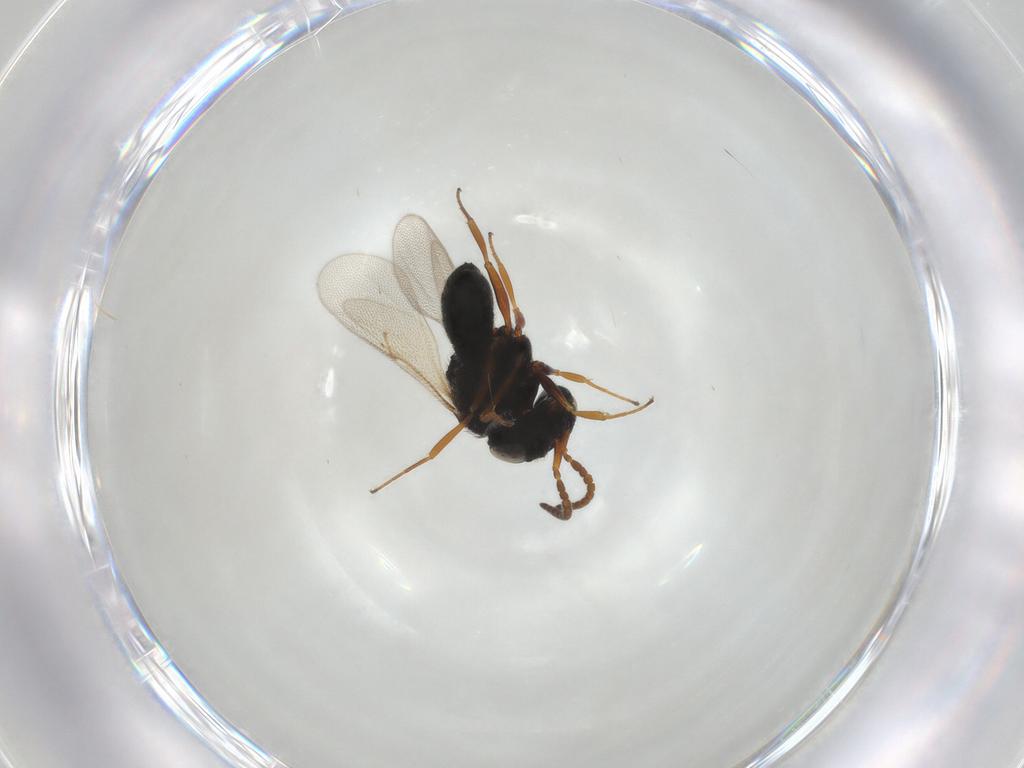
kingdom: Animalia
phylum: Arthropoda
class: Insecta
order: Hymenoptera
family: Scelionidae
